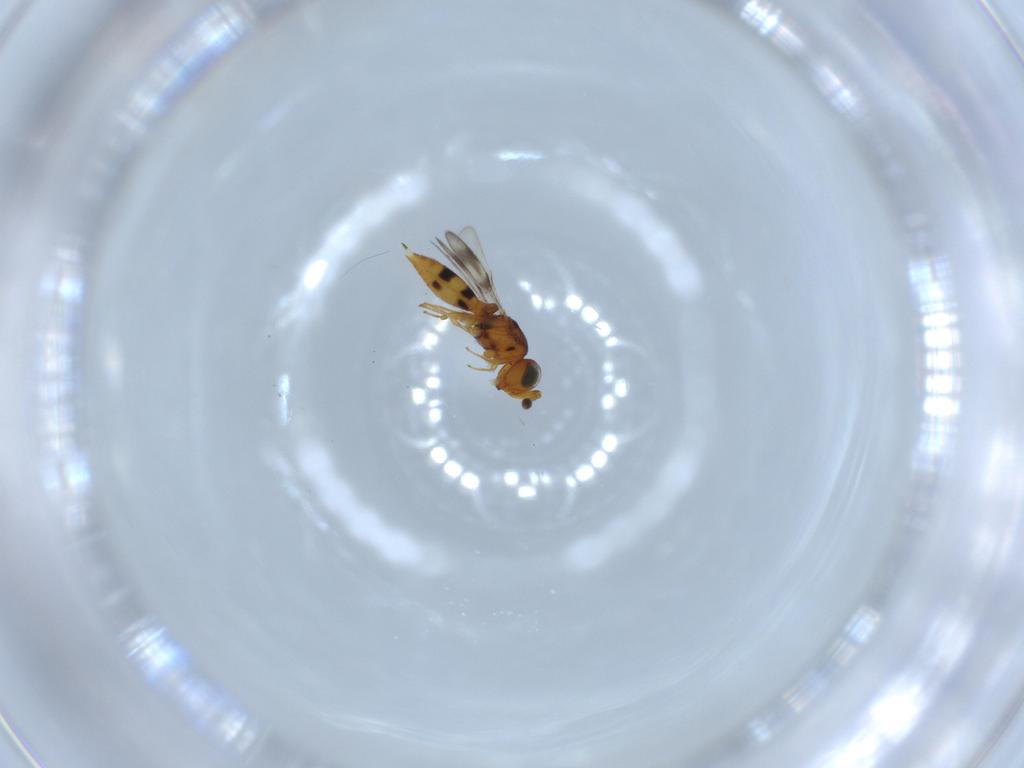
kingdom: Animalia
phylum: Arthropoda
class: Insecta
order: Hymenoptera
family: Scelionidae
